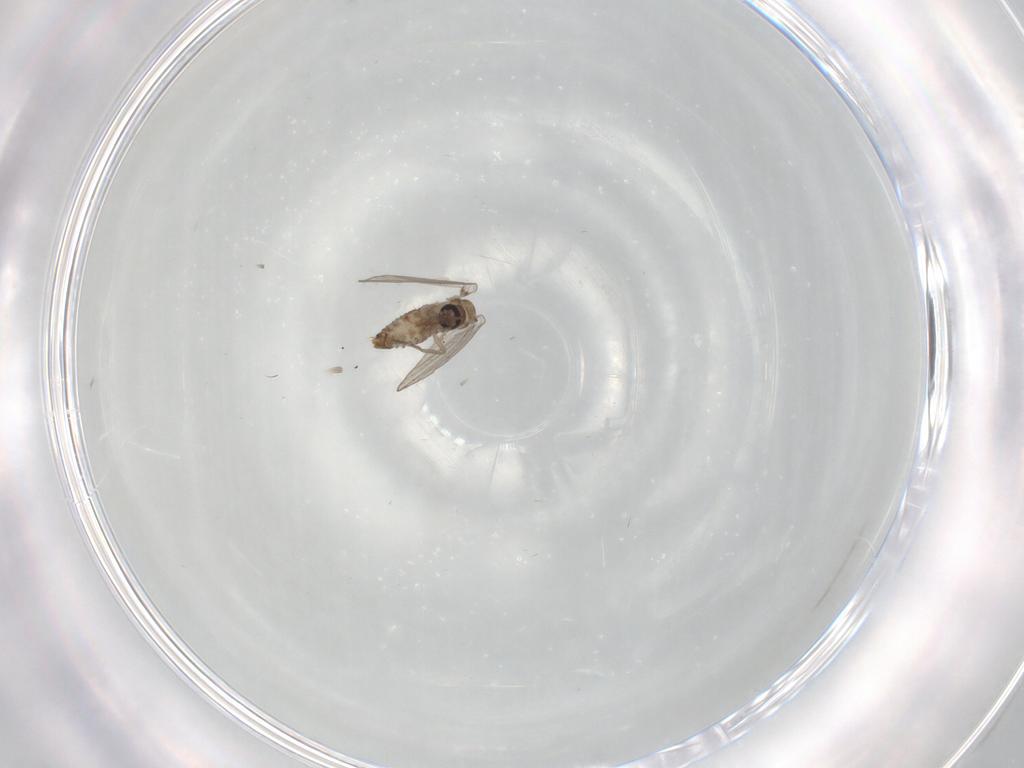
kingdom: Animalia
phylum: Arthropoda
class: Insecta
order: Diptera
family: Psychodidae
